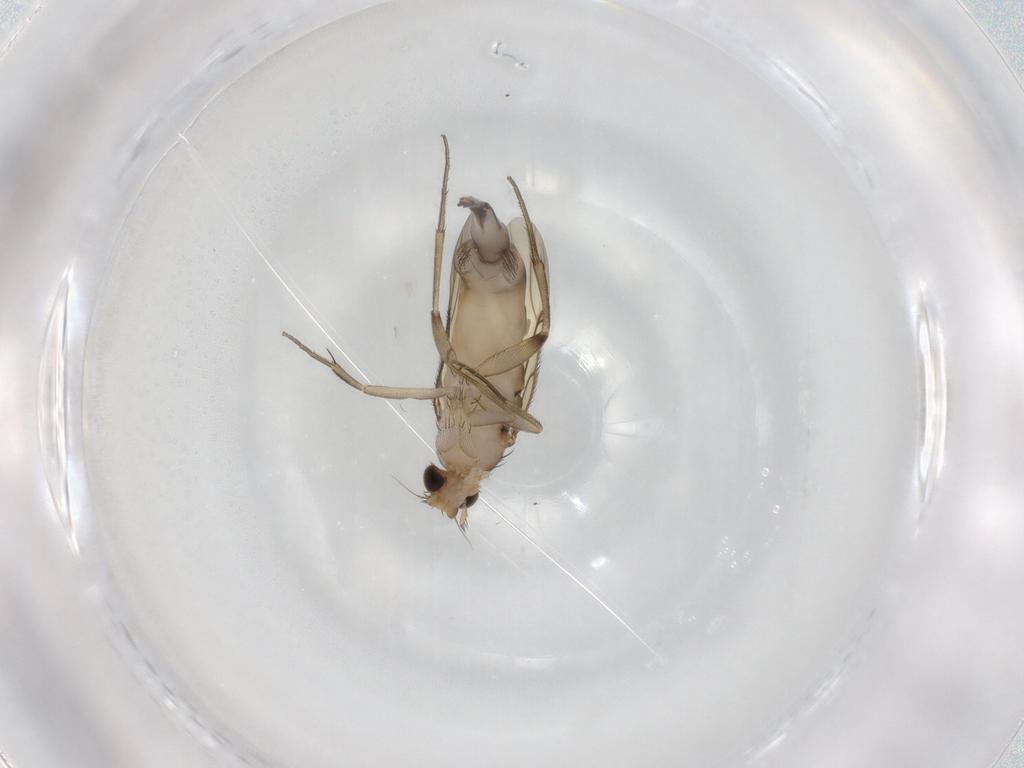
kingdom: Animalia
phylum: Arthropoda
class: Insecta
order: Diptera
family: Phoridae
